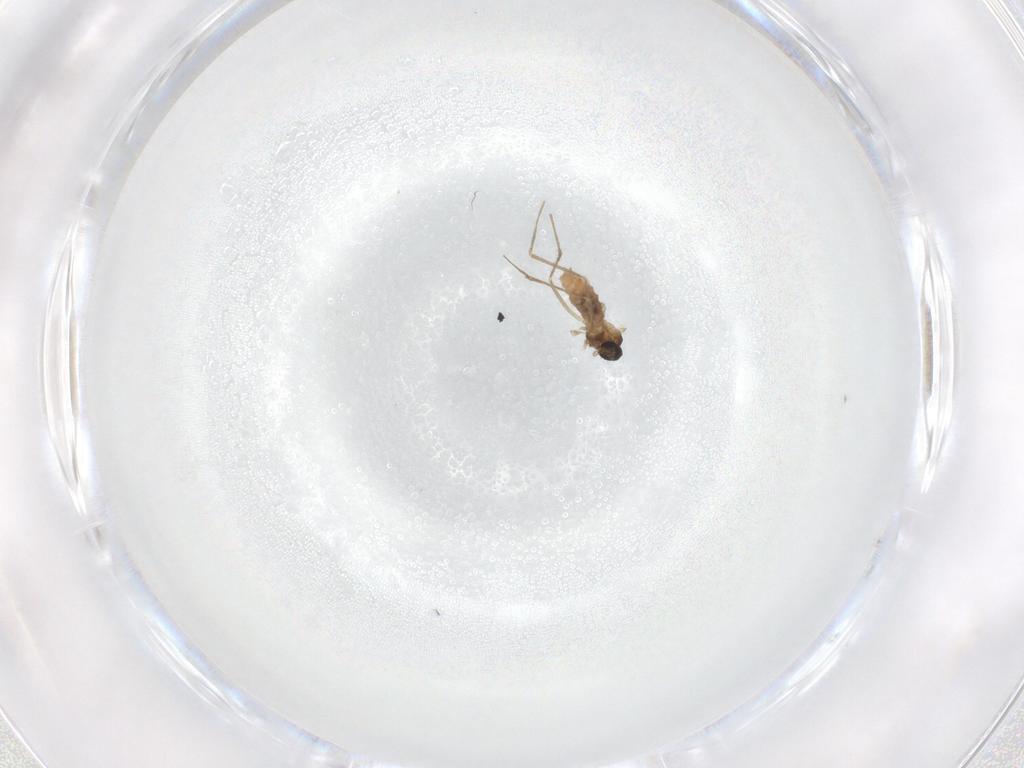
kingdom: Animalia
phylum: Arthropoda
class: Insecta
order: Diptera
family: Cecidomyiidae
